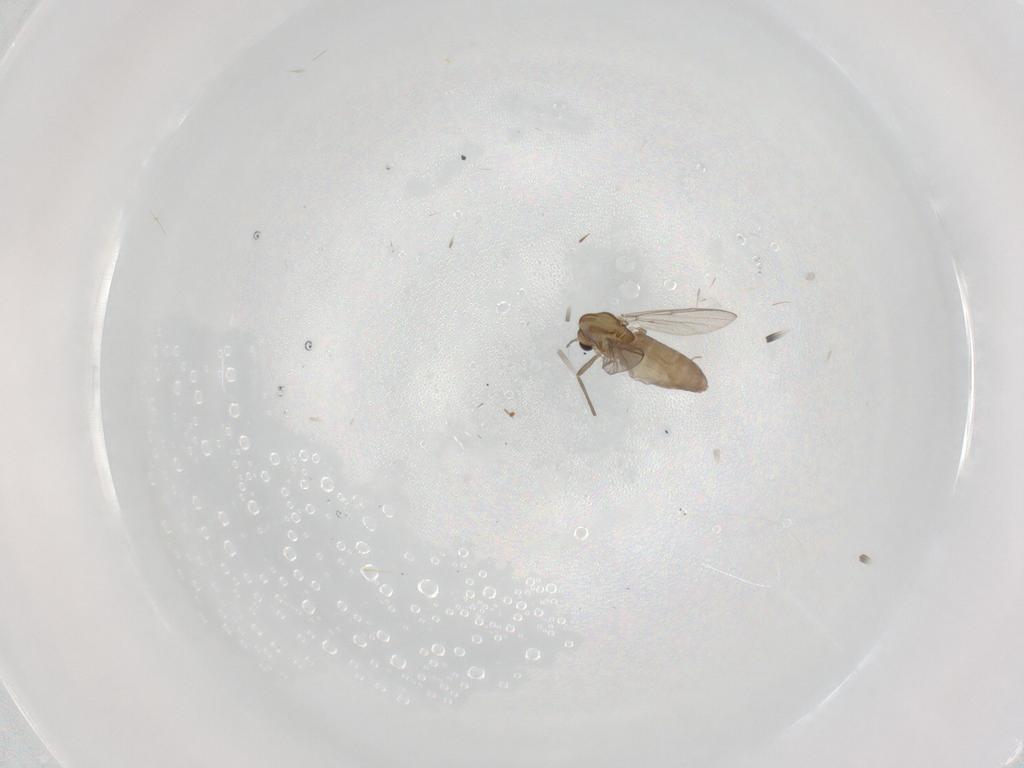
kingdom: Animalia
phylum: Arthropoda
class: Insecta
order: Diptera
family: Chironomidae
